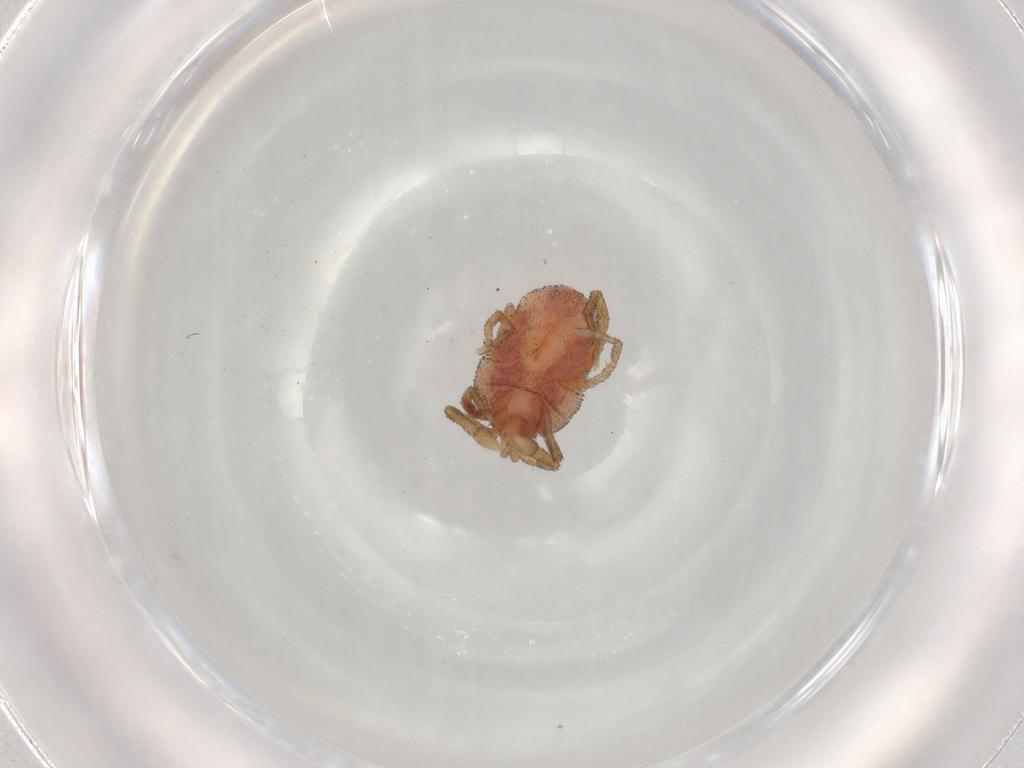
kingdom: Animalia
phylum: Arthropoda
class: Arachnida
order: Trombidiformes
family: Erythraeidae
